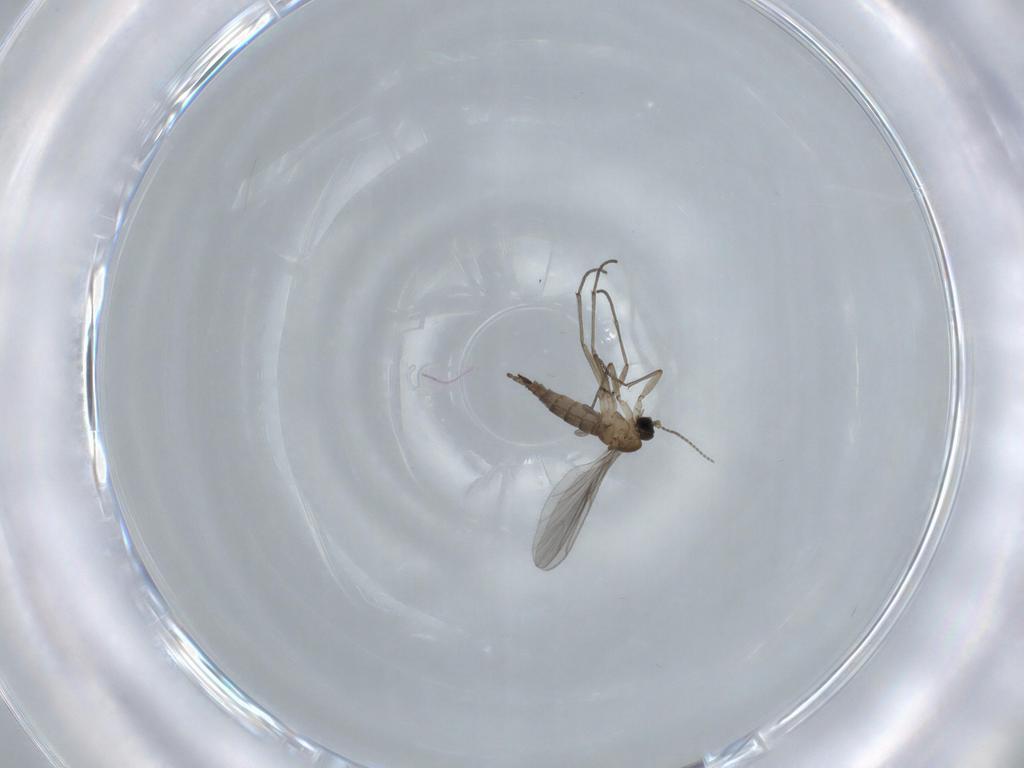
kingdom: Animalia
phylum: Arthropoda
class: Insecta
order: Diptera
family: Sciaridae
